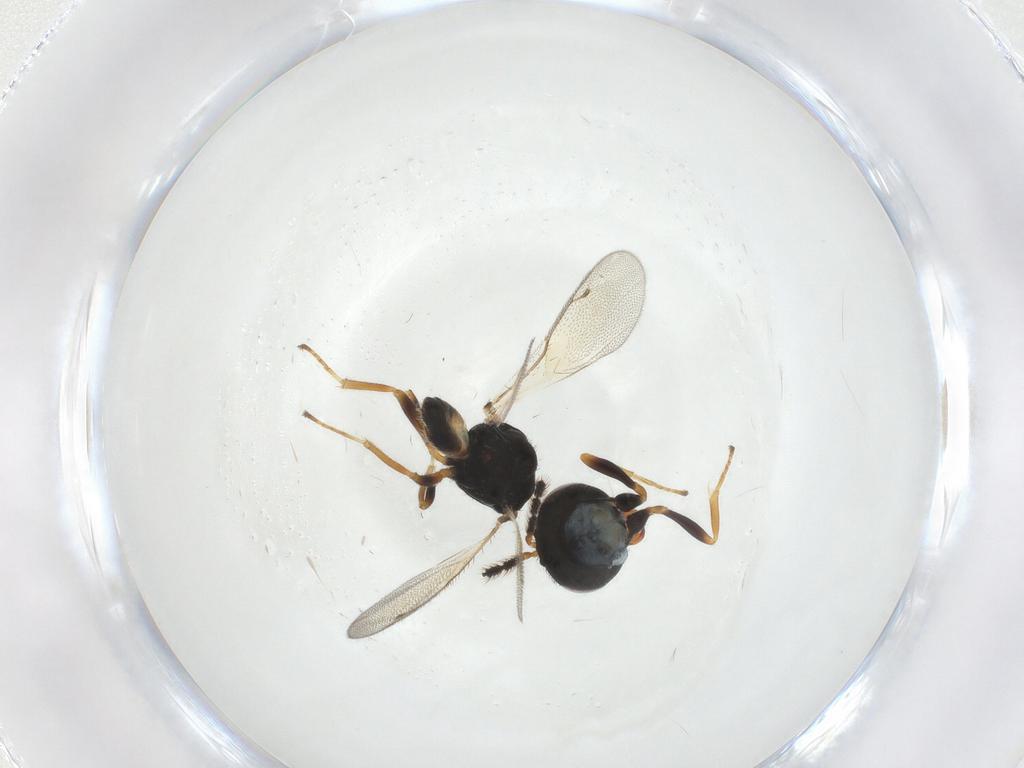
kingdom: Animalia
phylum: Arthropoda
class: Insecta
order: Hymenoptera
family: Pteromalidae
